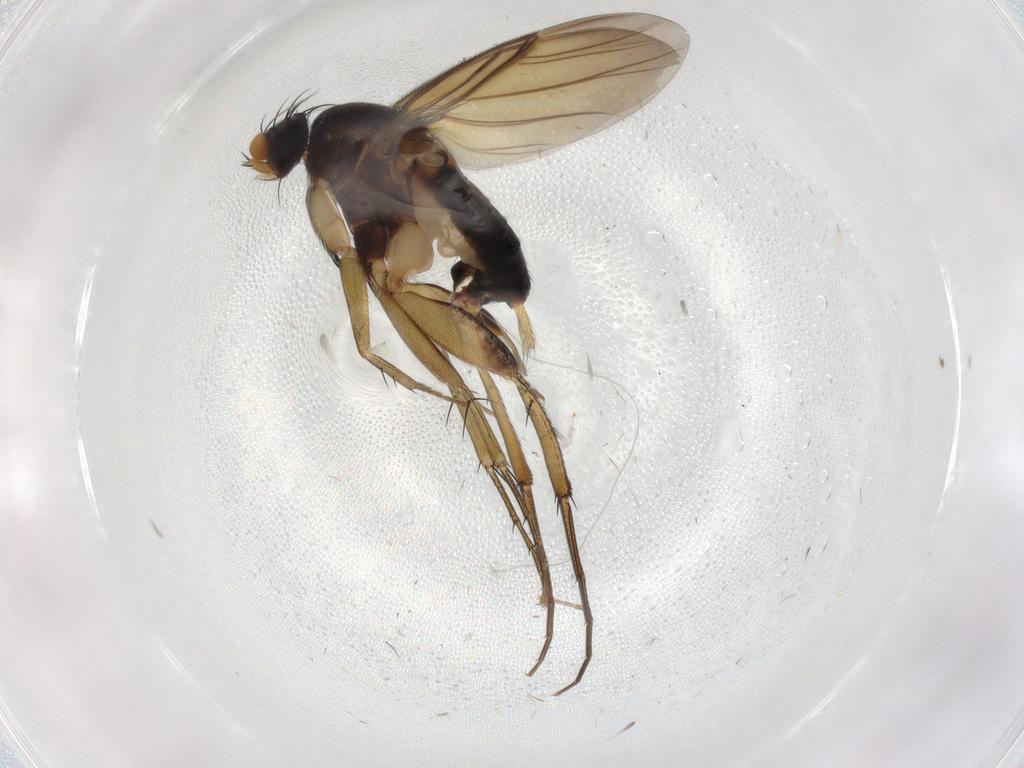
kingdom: Animalia
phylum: Arthropoda
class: Insecta
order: Diptera
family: Phoridae
